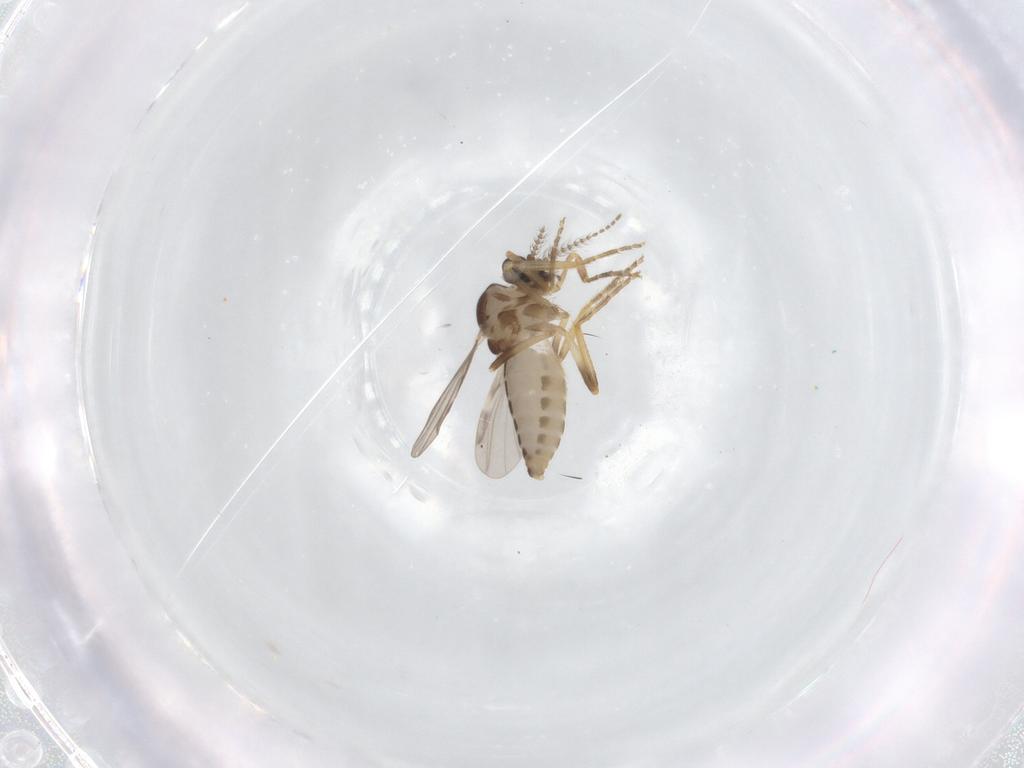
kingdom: Animalia
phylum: Arthropoda
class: Insecta
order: Diptera
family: Ceratopogonidae
